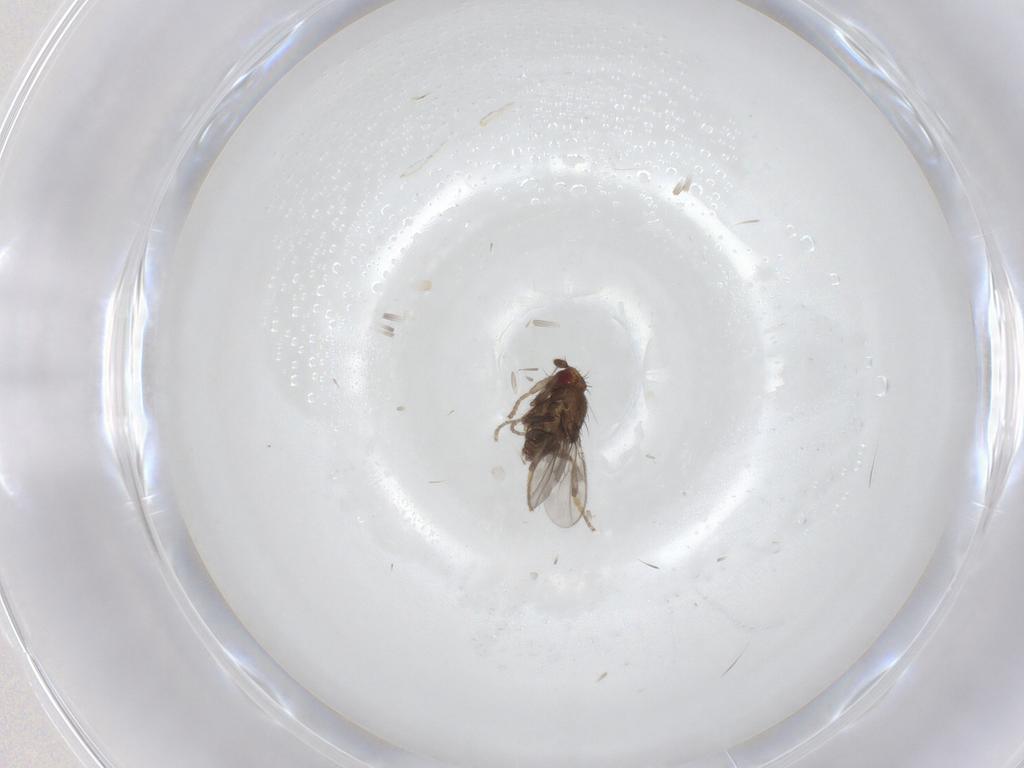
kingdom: Animalia
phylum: Arthropoda
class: Insecta
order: Diptera
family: Sphaeroceridae
